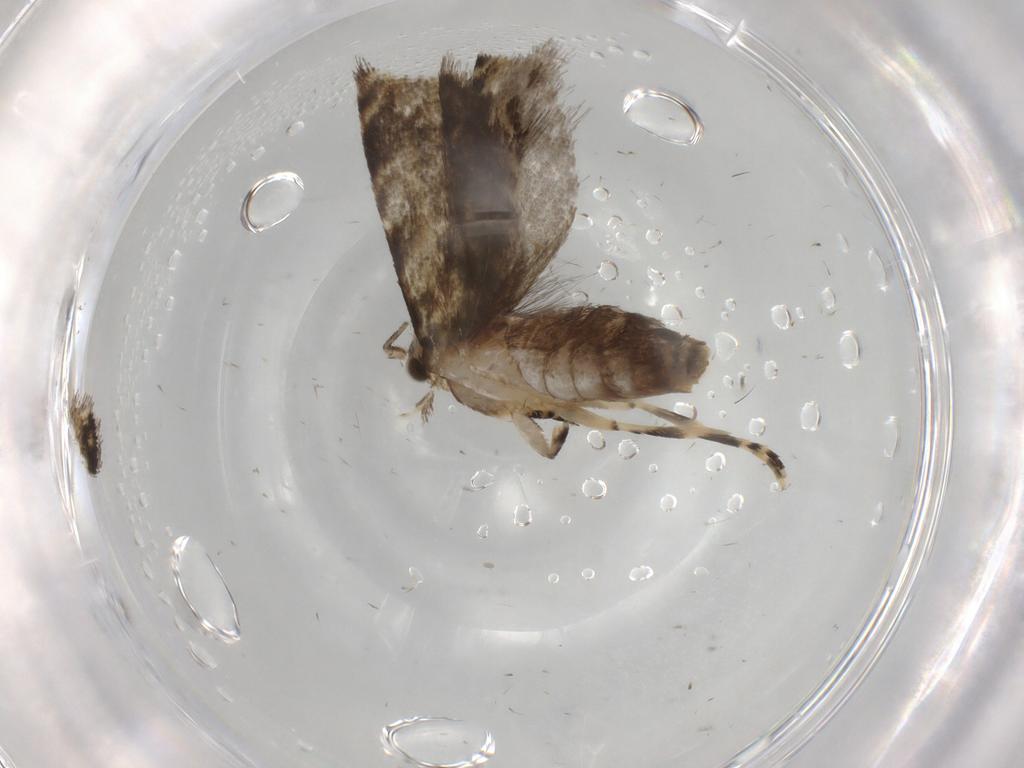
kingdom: Animalia
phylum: Arthropoda
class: Insecta
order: Lepidoptera
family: Tineidae
